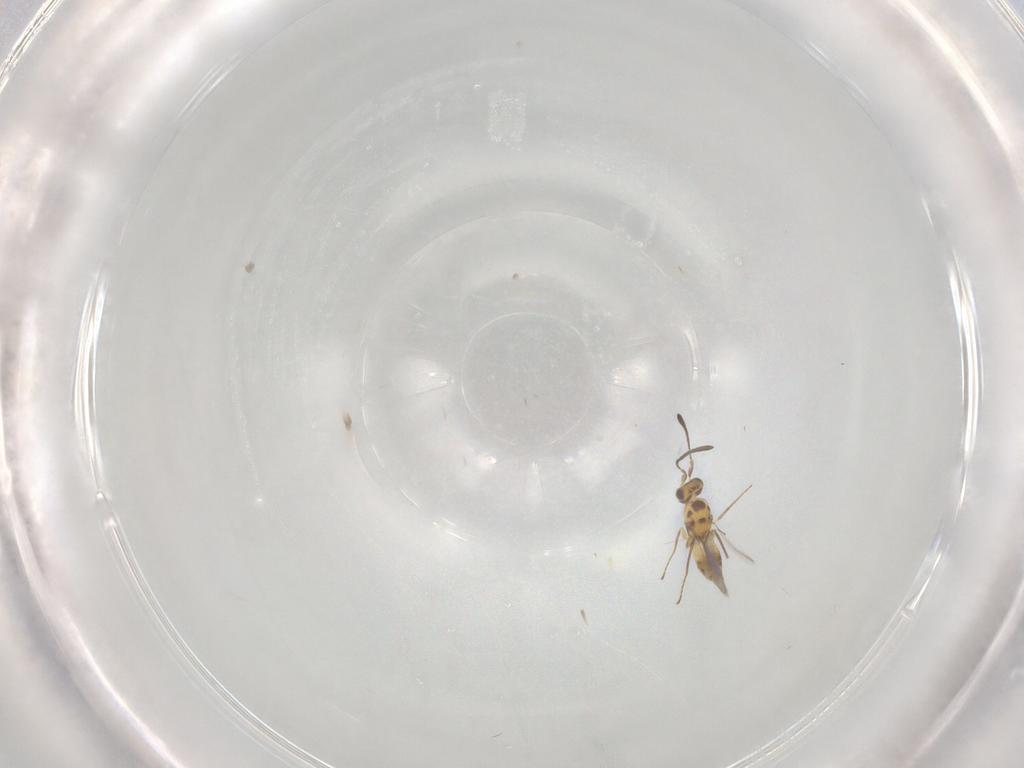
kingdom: Animalia
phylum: Arthropoda
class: Insecta
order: Hymenoptera
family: Mymaridae
